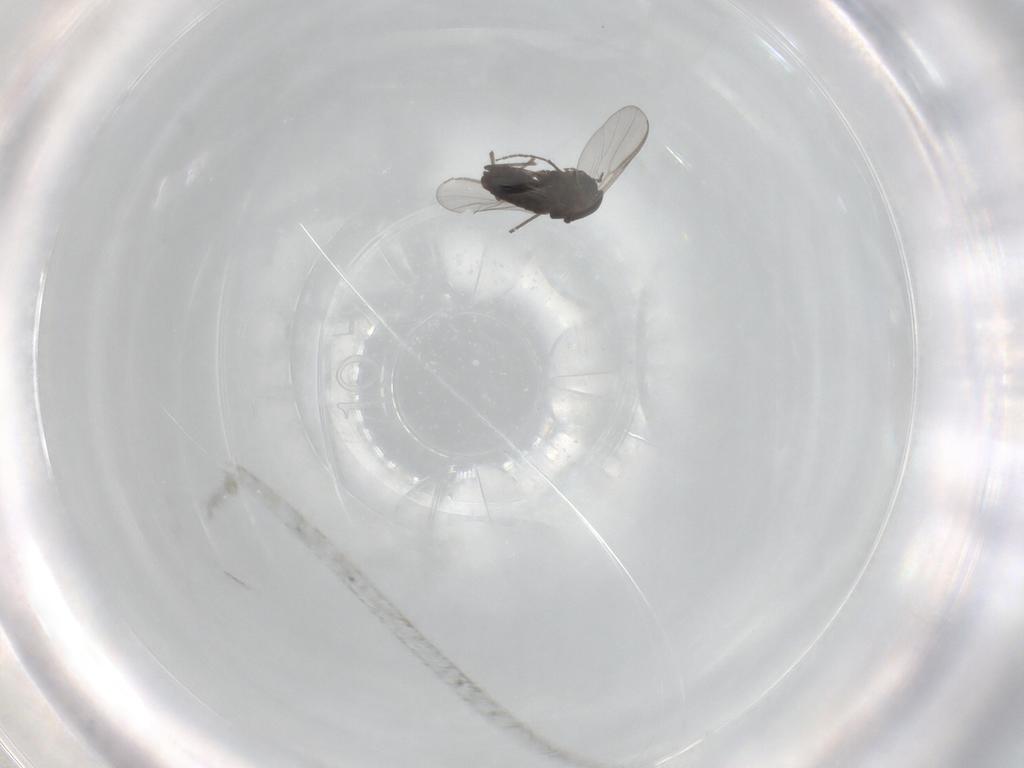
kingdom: Animalia
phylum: Arthropoda
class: Insecta
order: Diptera
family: Chironomidae
